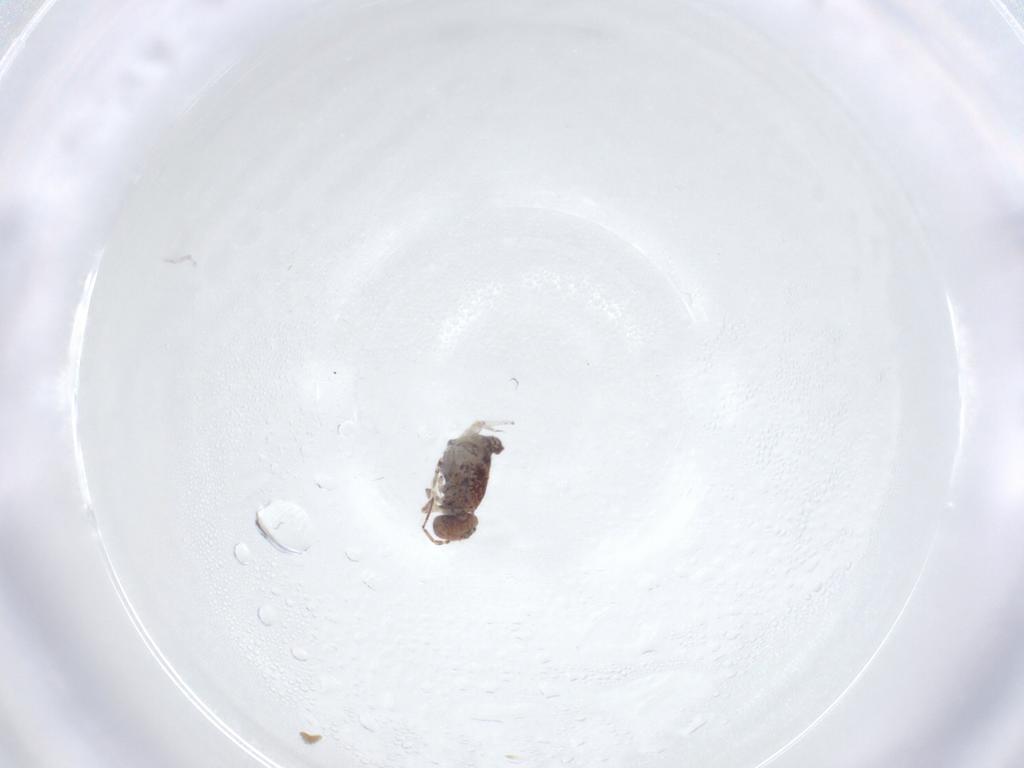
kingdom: Animalia
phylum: Arthropoda
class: Collembola
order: Symphypleona
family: Bourletiellidae
